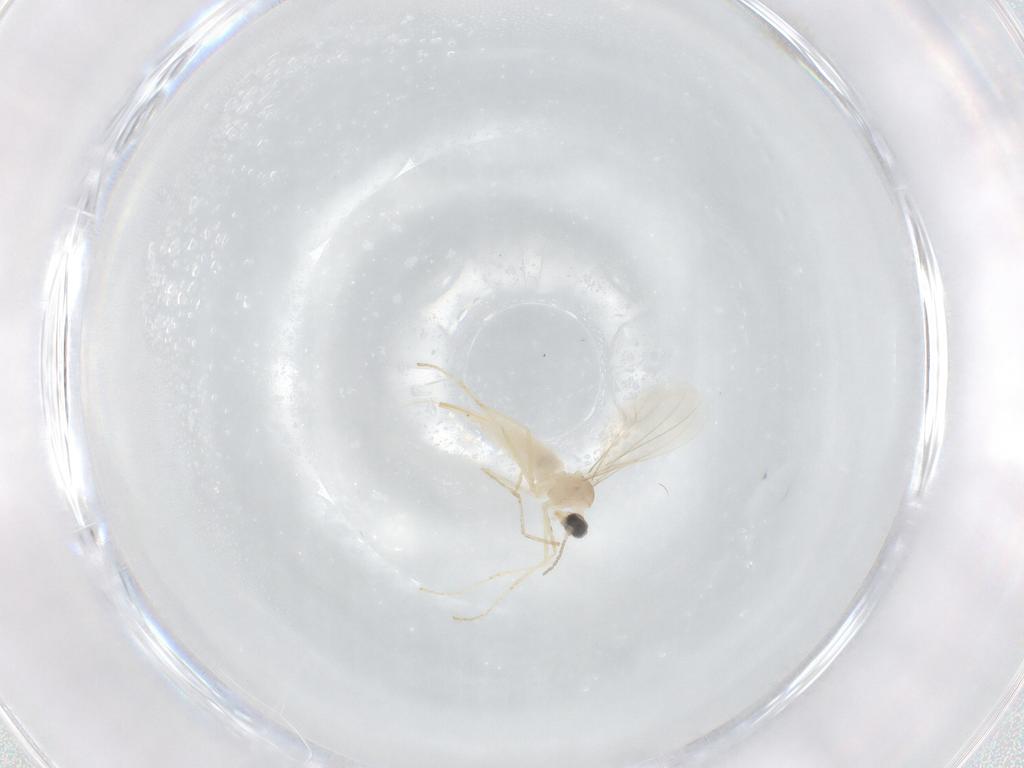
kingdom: Animalia
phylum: Arthropoda
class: Insecta
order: Diptera
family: Cecidomyiidae
